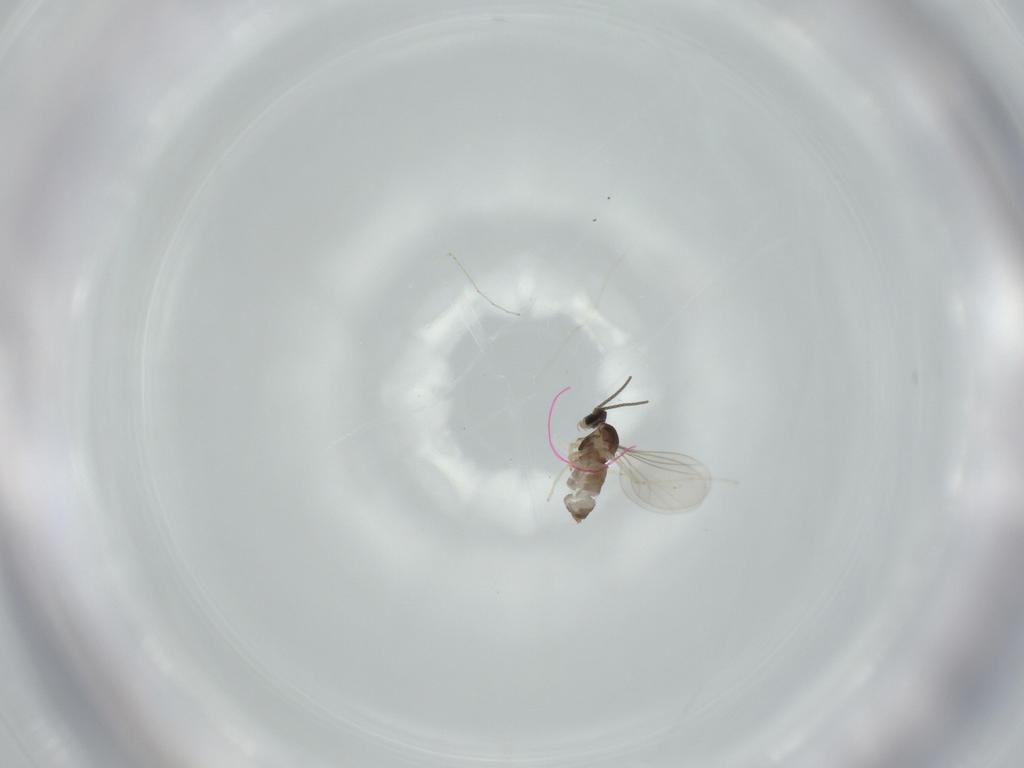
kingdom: Animalia
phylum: Arthropoda
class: Insecta
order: Diptera
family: Cecidomyiidae
